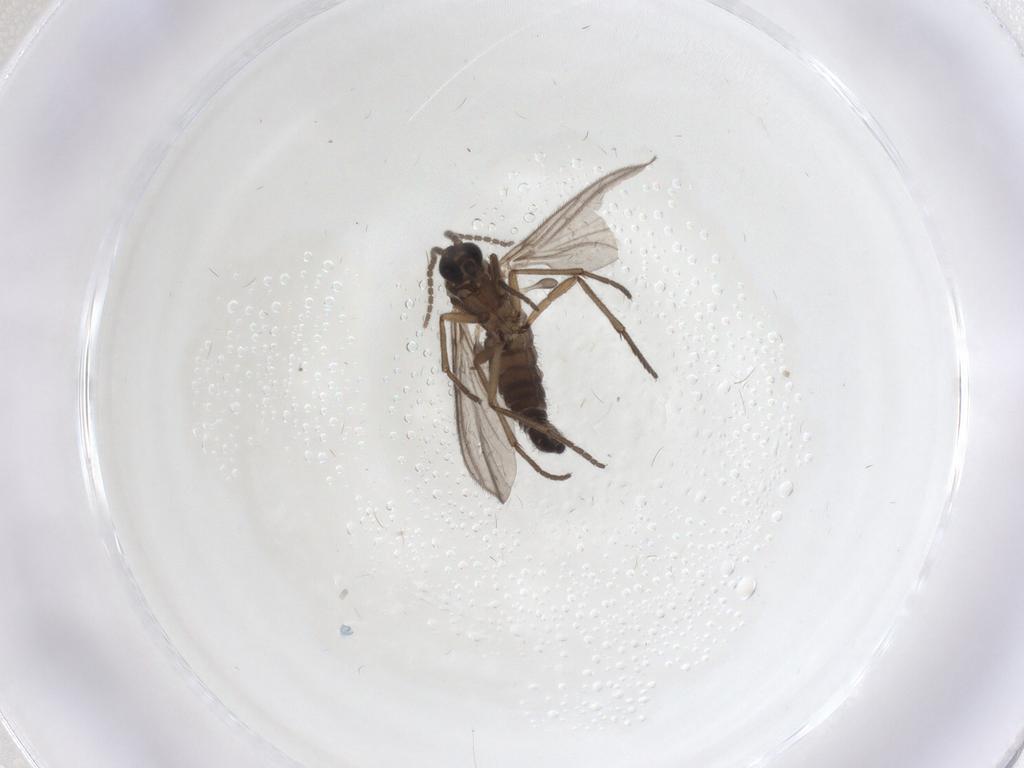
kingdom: Animalia
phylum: Arthropoda
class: Insecta
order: Diptera
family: Sciaridae
